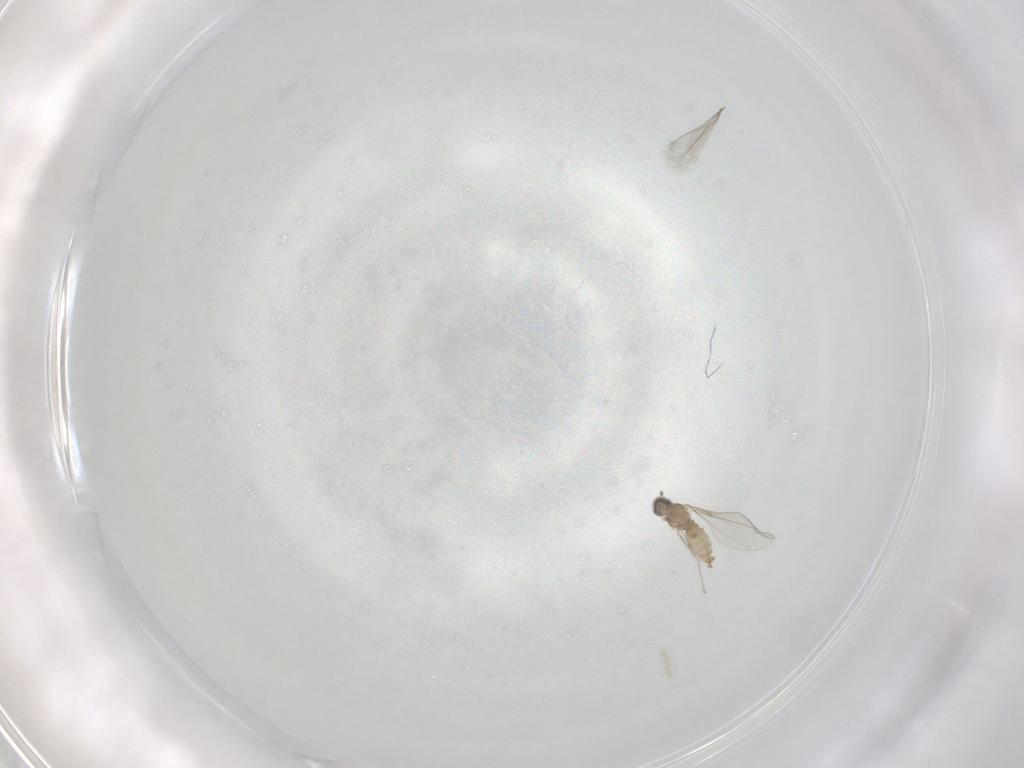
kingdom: Animalia
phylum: Arthropoda
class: Insecta
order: Diptera
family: Cecidomyiidae
